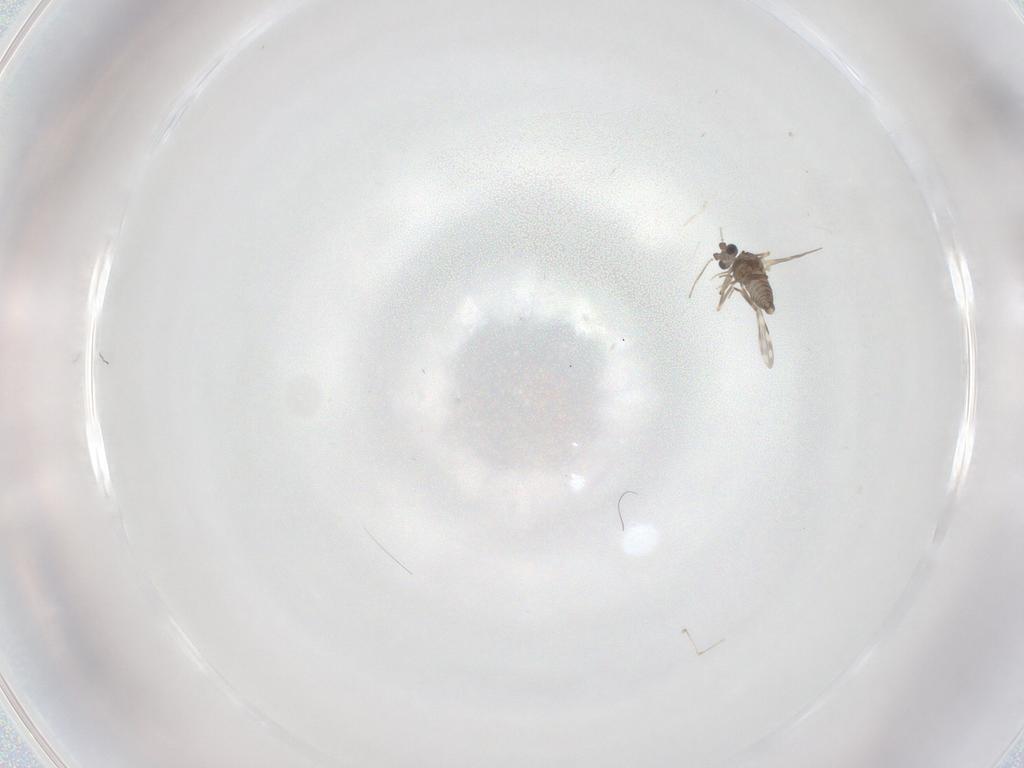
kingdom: Animalia
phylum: Arthropoda
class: Insecta
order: Diptera
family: Ceratopogonidae
